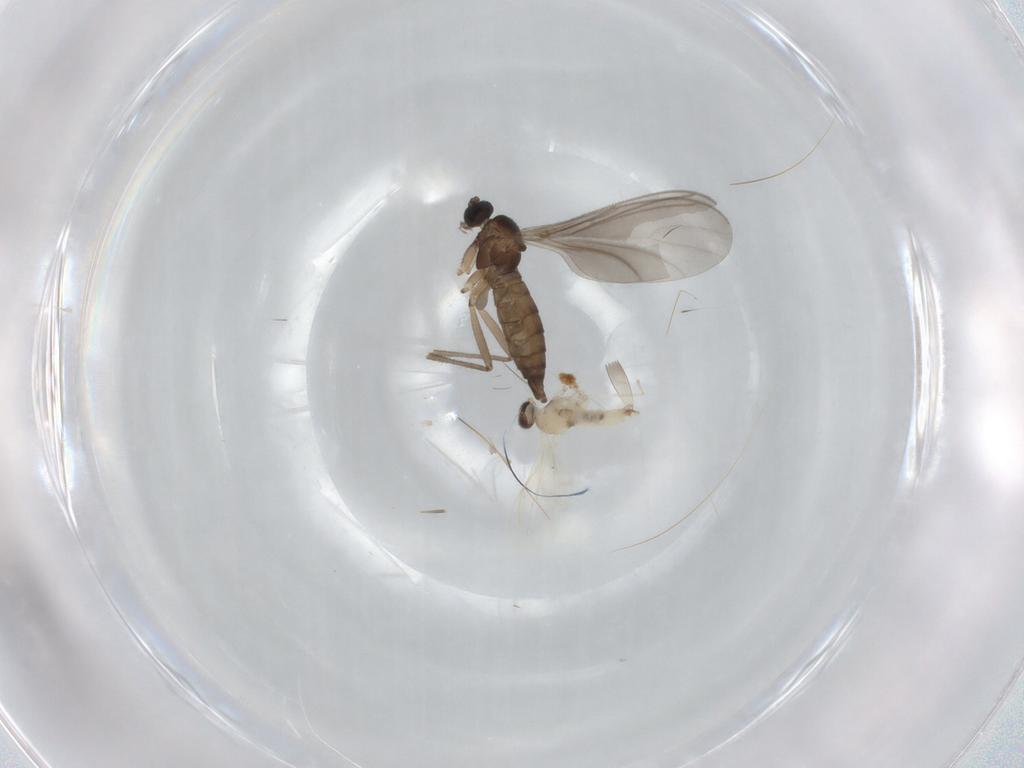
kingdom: Animalia
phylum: Arthropoda
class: Insecta
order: Diptera
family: Sciaridae
